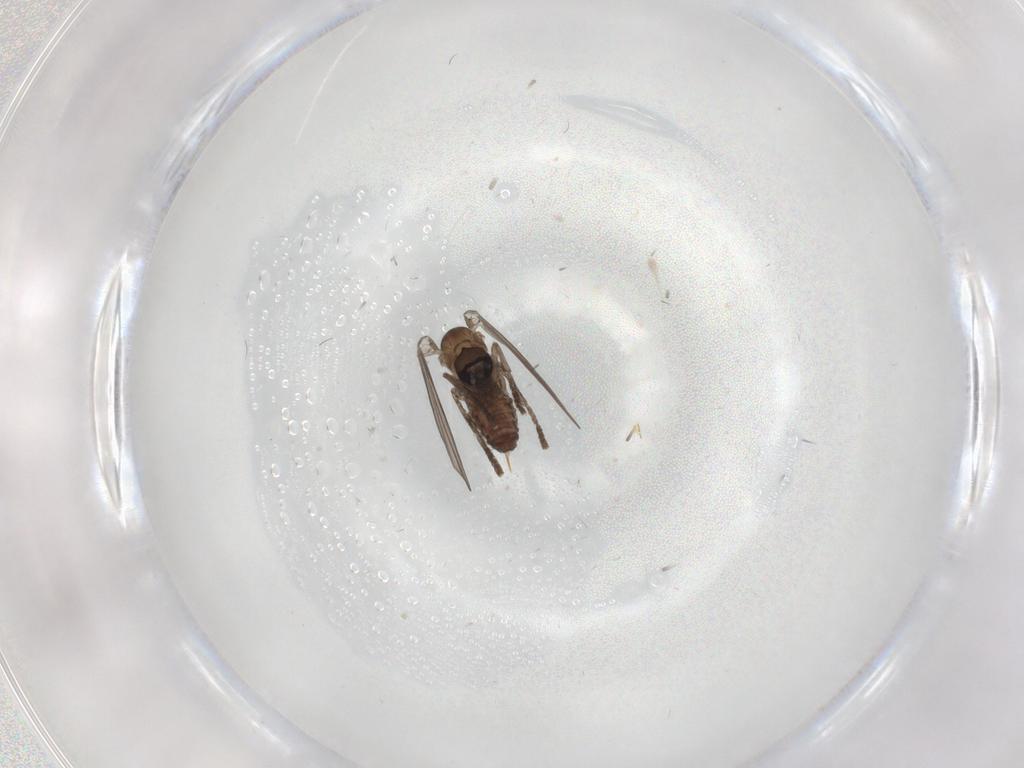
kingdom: Animalia
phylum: Arthropoda
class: Insecta
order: Diptera
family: Psychodidae
